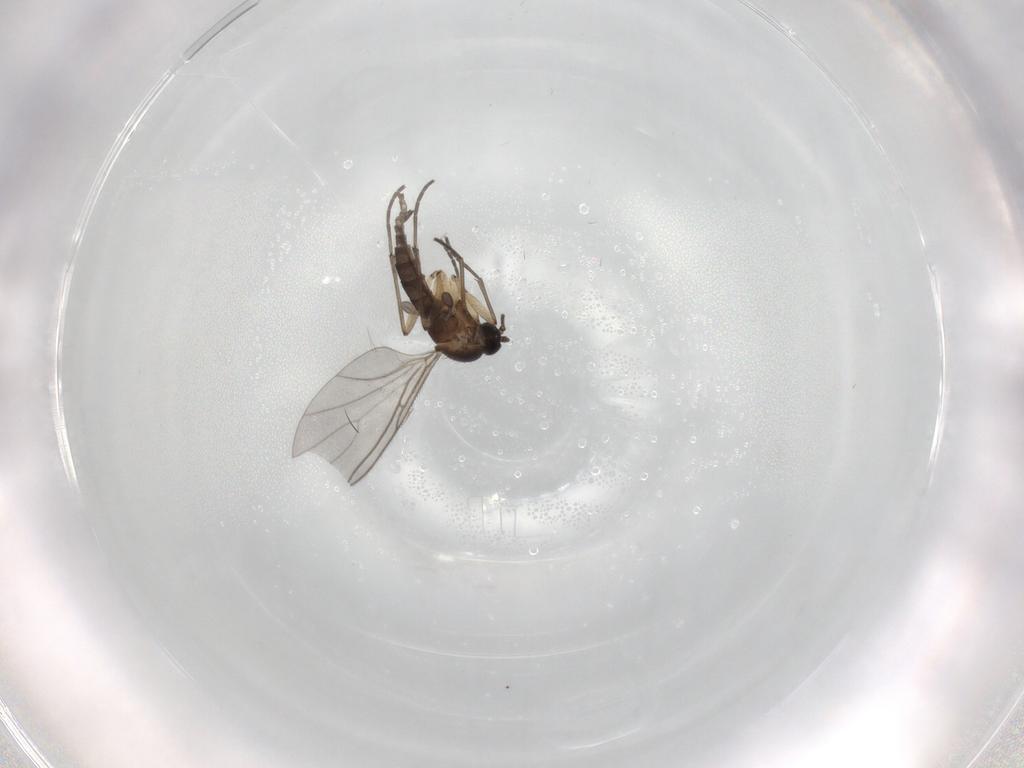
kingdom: Animalia
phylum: Arthropoda
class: Insecta
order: Diptera
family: Sciaridae
